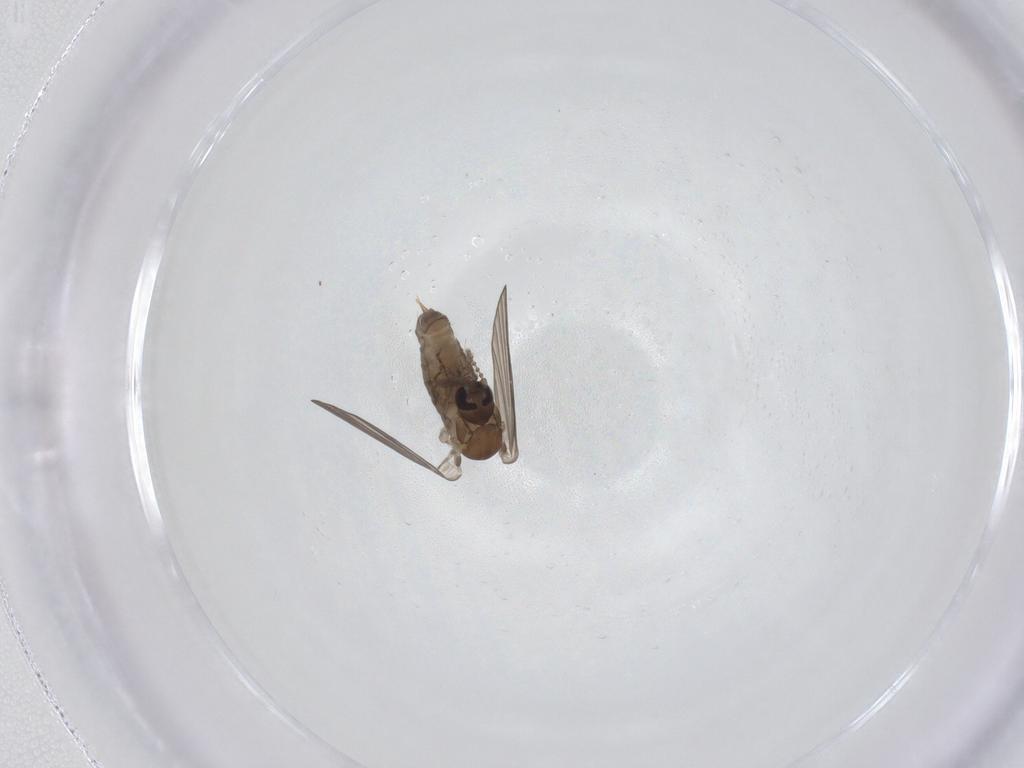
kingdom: Animalia
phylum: Arthropoda
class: Insecta
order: Diptera
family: Psychodidae
